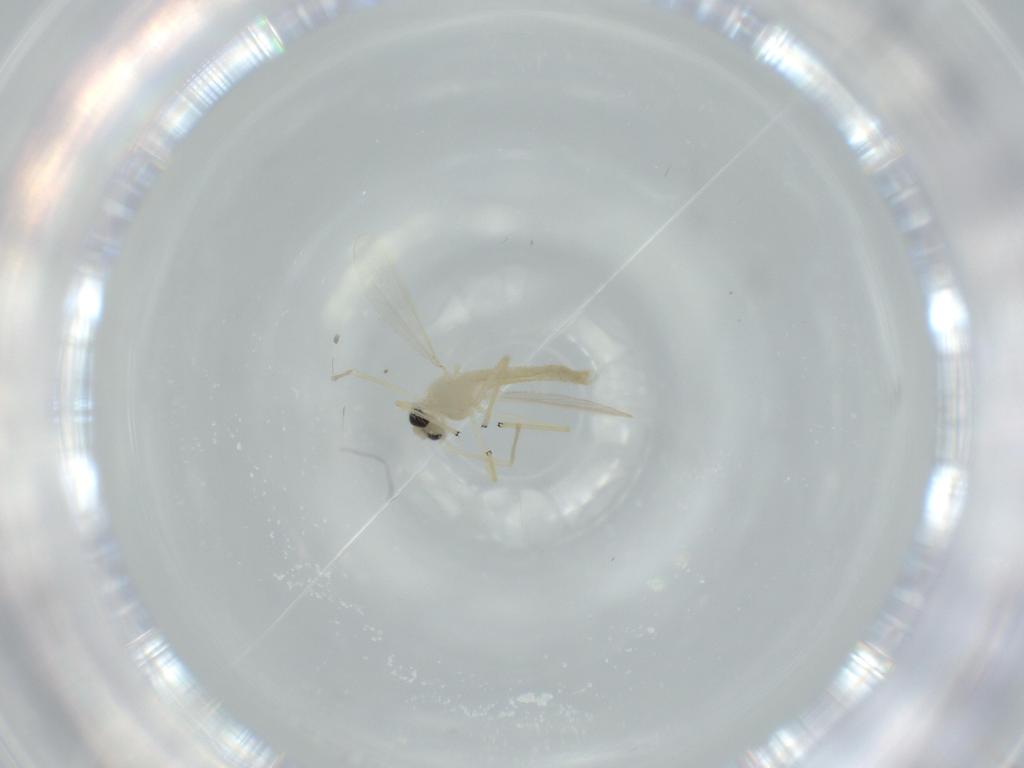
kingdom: Animalia
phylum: Arthropoda
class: Insecta
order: Diptera
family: Chironomidae
